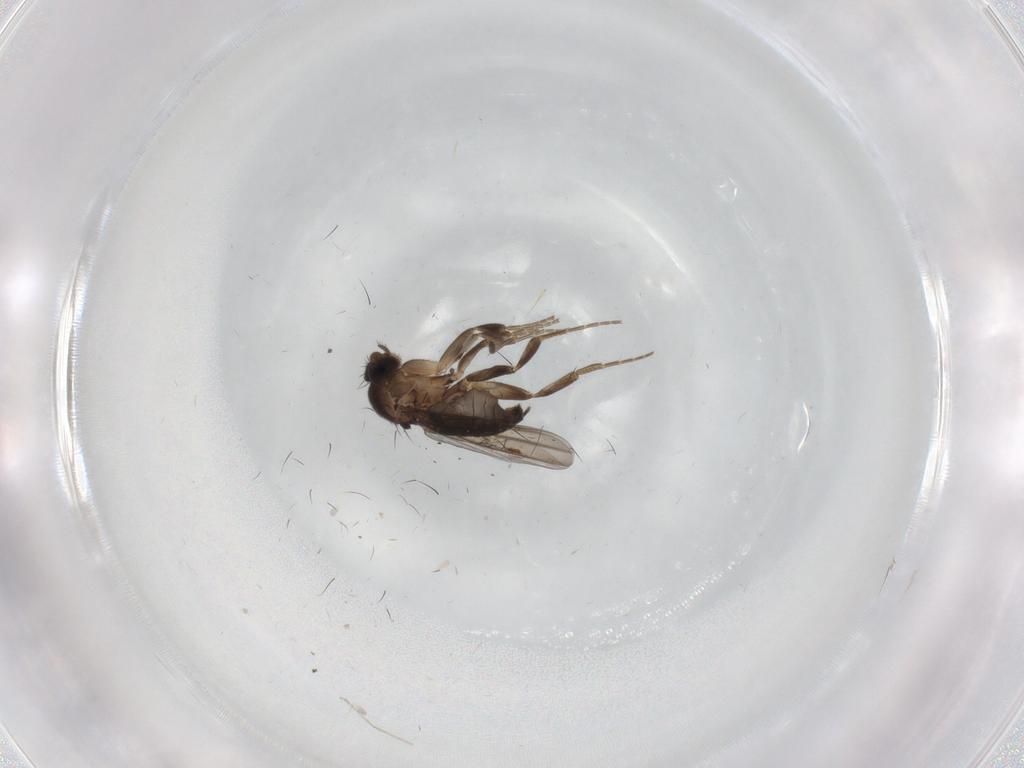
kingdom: Animalia
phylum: Arthropoda
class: Insecta
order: Diptera
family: Phoridae
